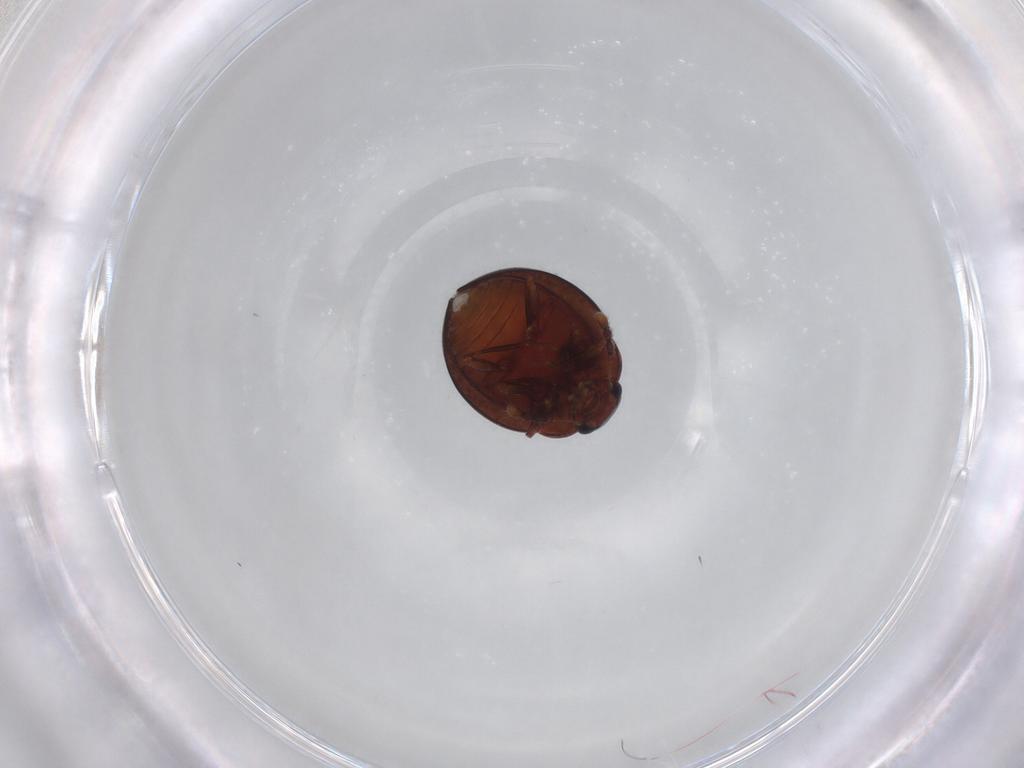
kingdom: Animalia
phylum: Arthropoda
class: Insecta
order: Coleoptera
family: Anamorphidae
